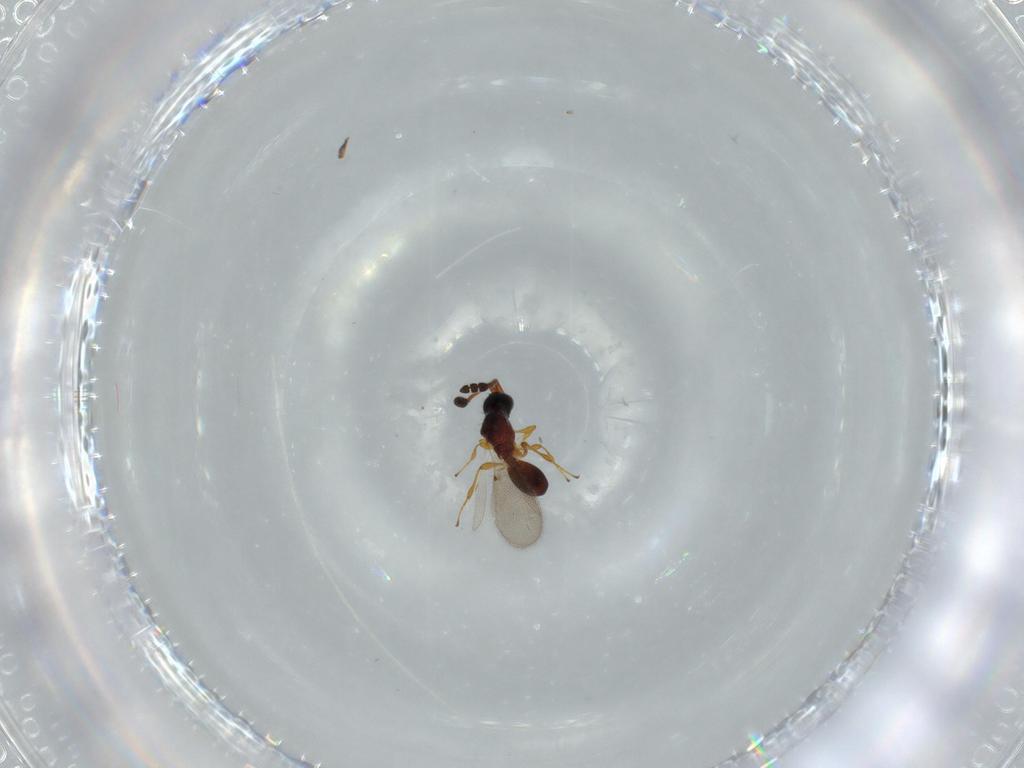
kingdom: Animalia
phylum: Arthropoda
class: Insecta
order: Hymenoptera
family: Diapriidae
